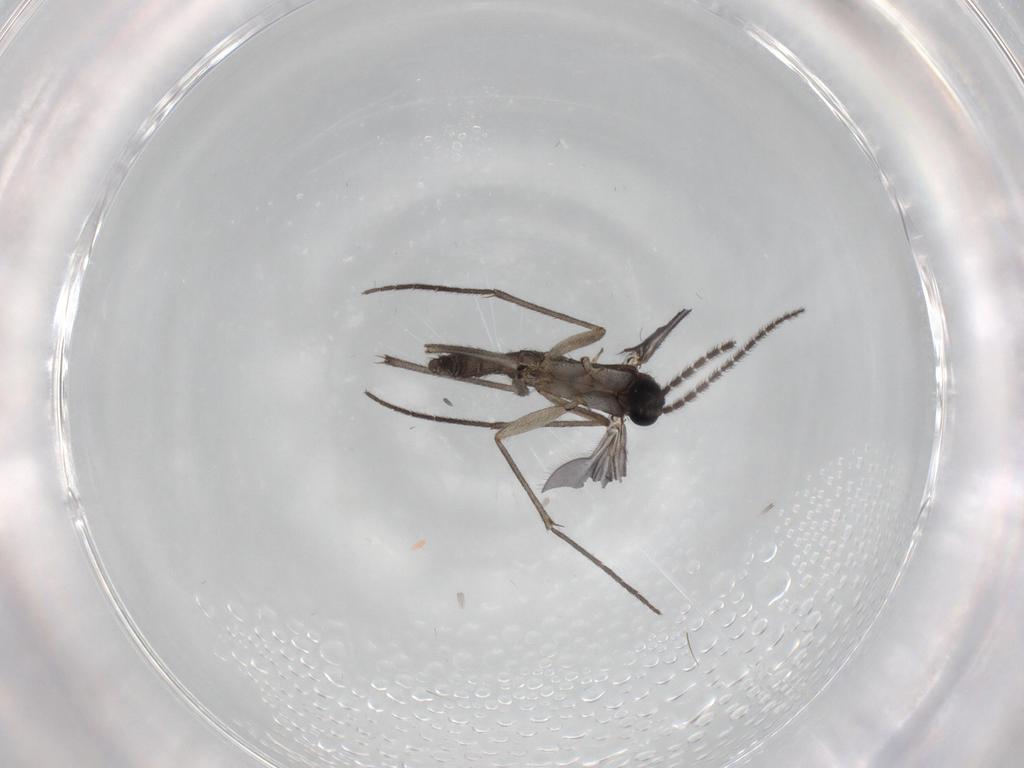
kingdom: Animalia
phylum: Arthropoda
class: Insecta
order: Diptera
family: Sciaridae
